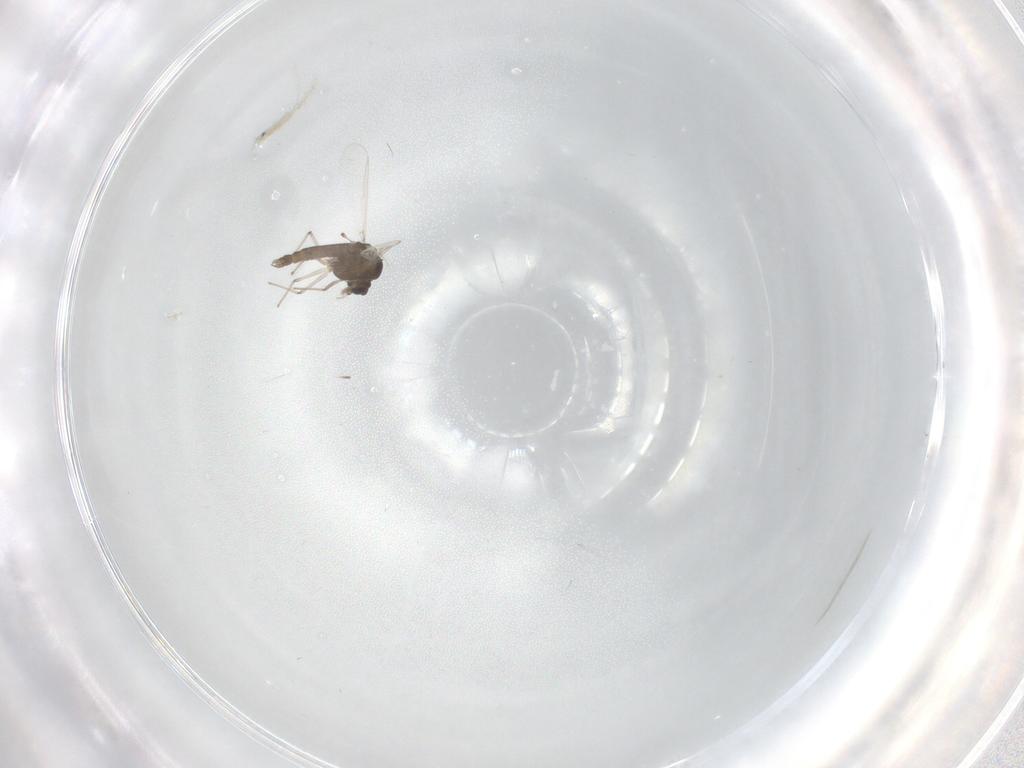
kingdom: Animalia
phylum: Arthropoda
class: Insecta
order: Diptera
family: Chironomidae
